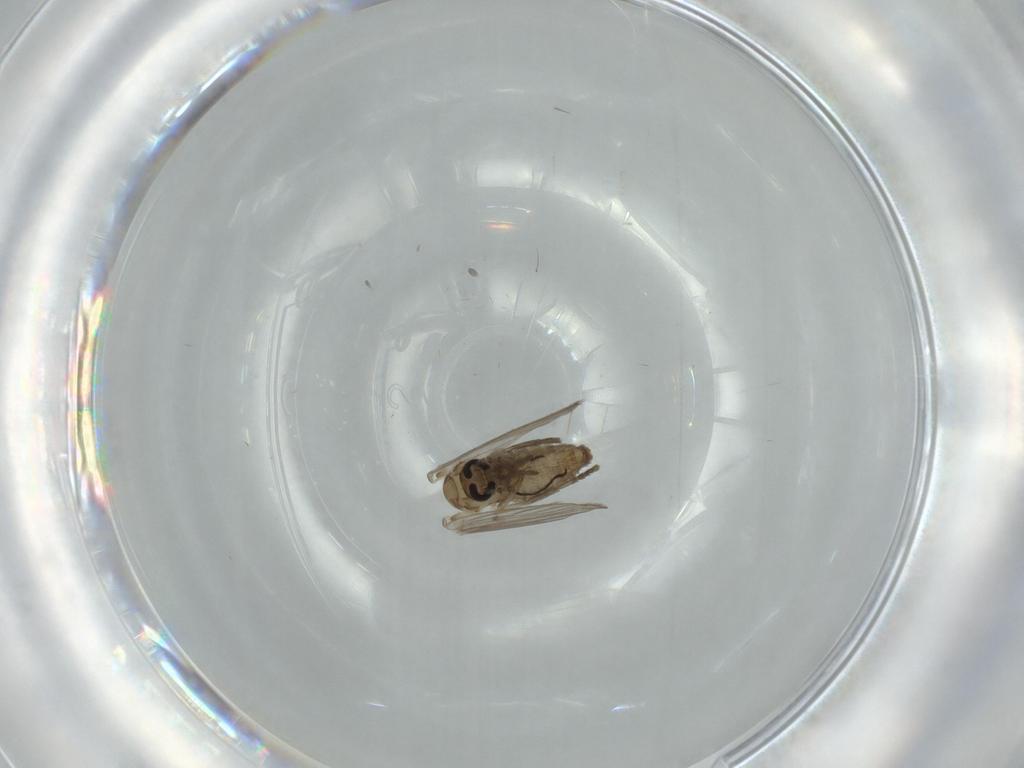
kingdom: Animalia
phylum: Arthropoda
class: Insecta
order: Diptera
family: Psychodidae
